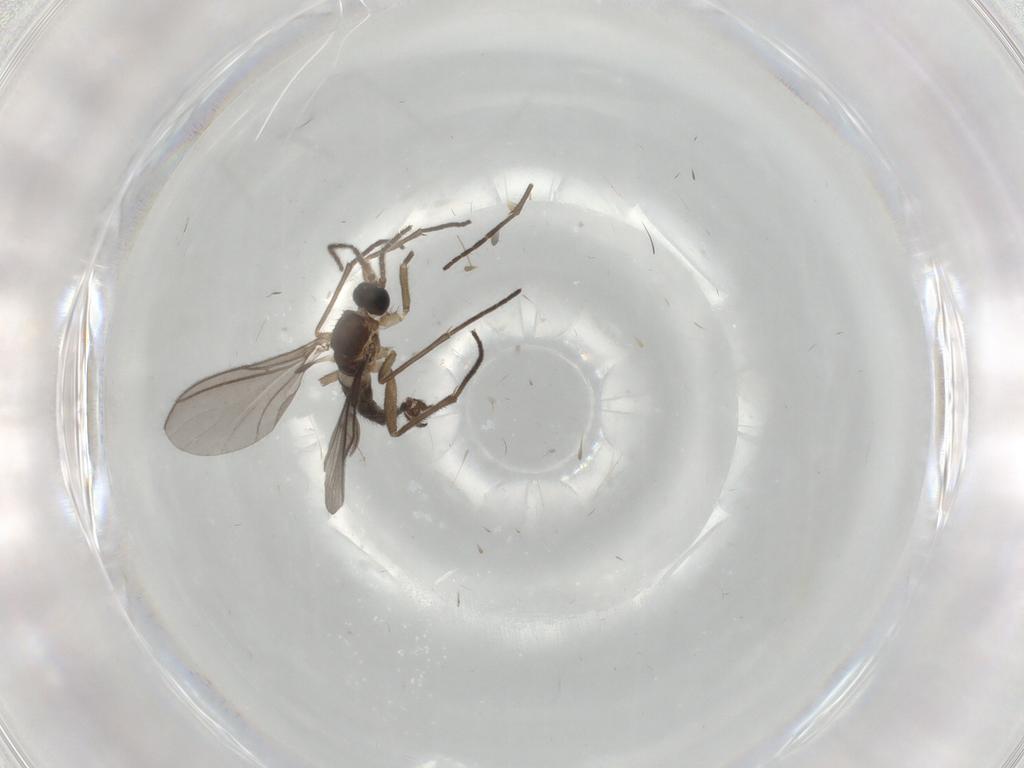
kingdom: Animalia
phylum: Arthropoda
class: Insecta
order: Diptera
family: Sciaridae
